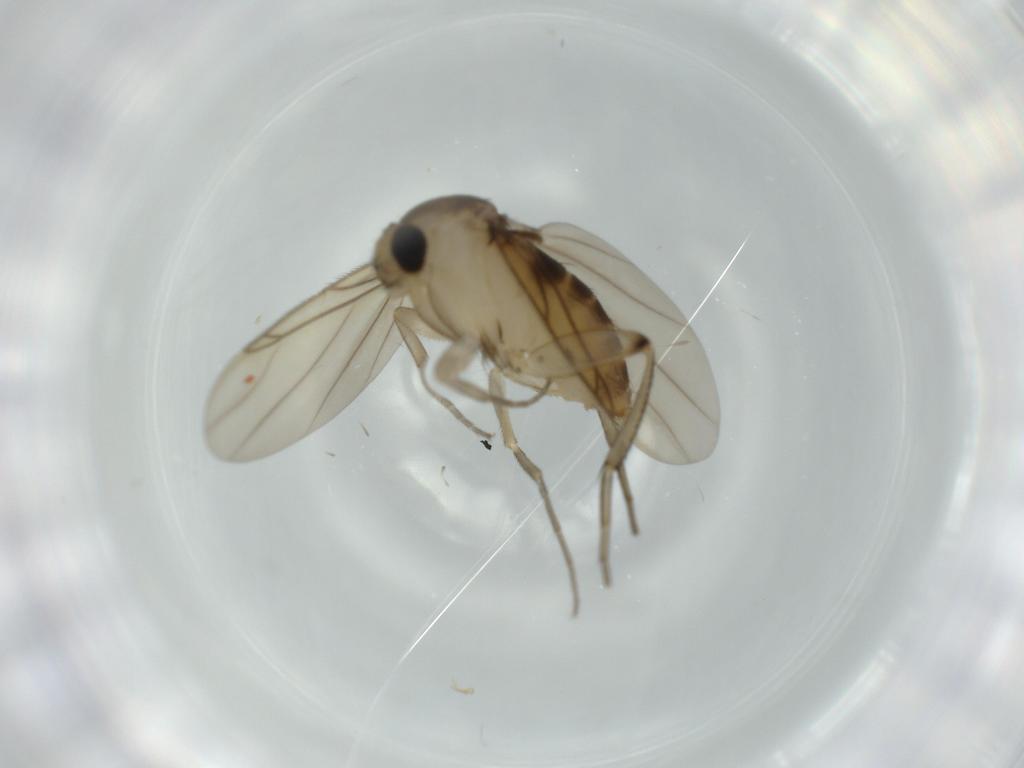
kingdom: Animalia
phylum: Arthropoda
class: Insecta
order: Diptera
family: Phoridae
